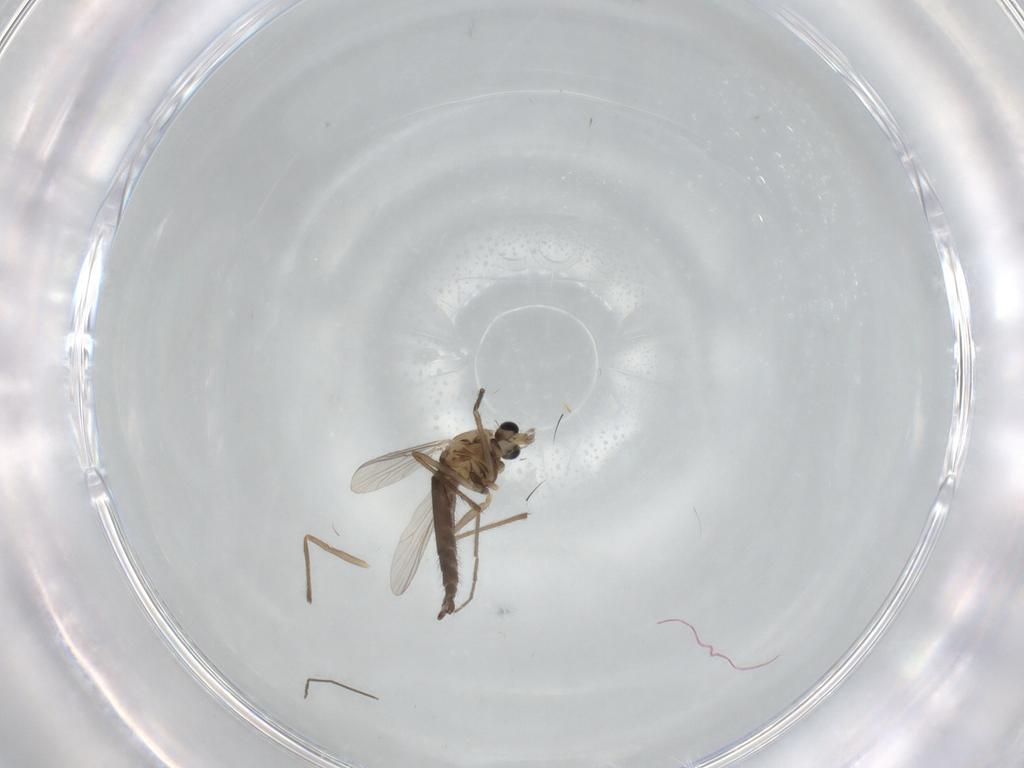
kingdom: Animalia
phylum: Arthropoda
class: Insecta
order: Diptera
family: Chironomidae
